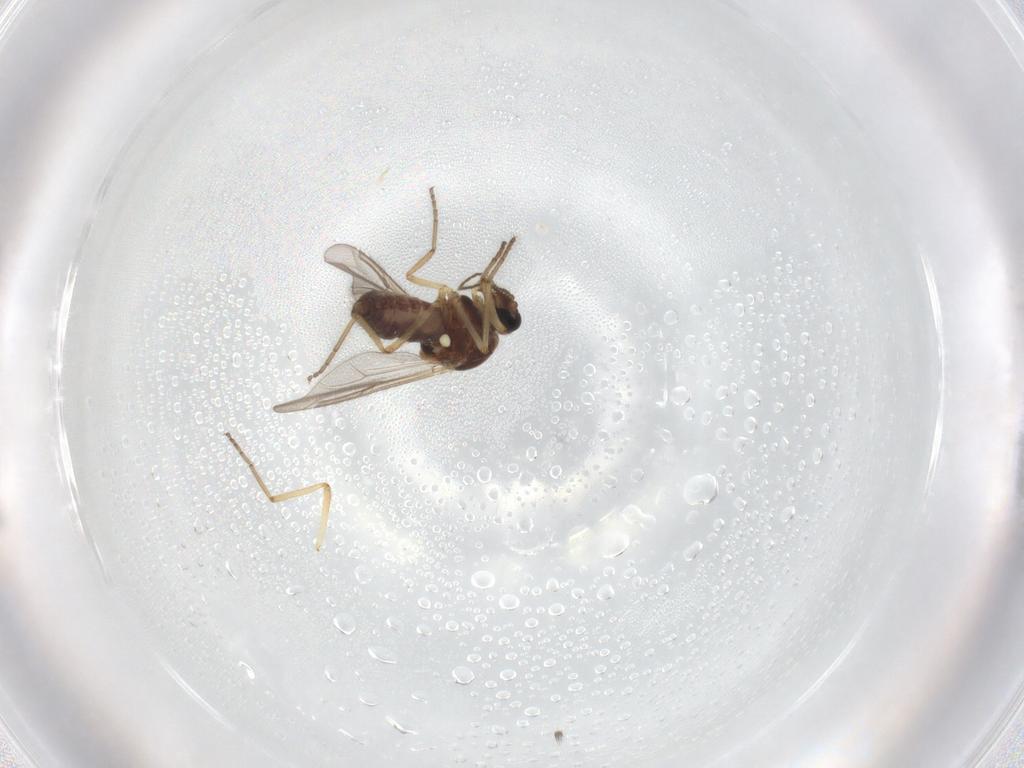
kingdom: Animalia
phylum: Arthropoda
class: Insecta
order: Diptera
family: Ceratopogonidae
